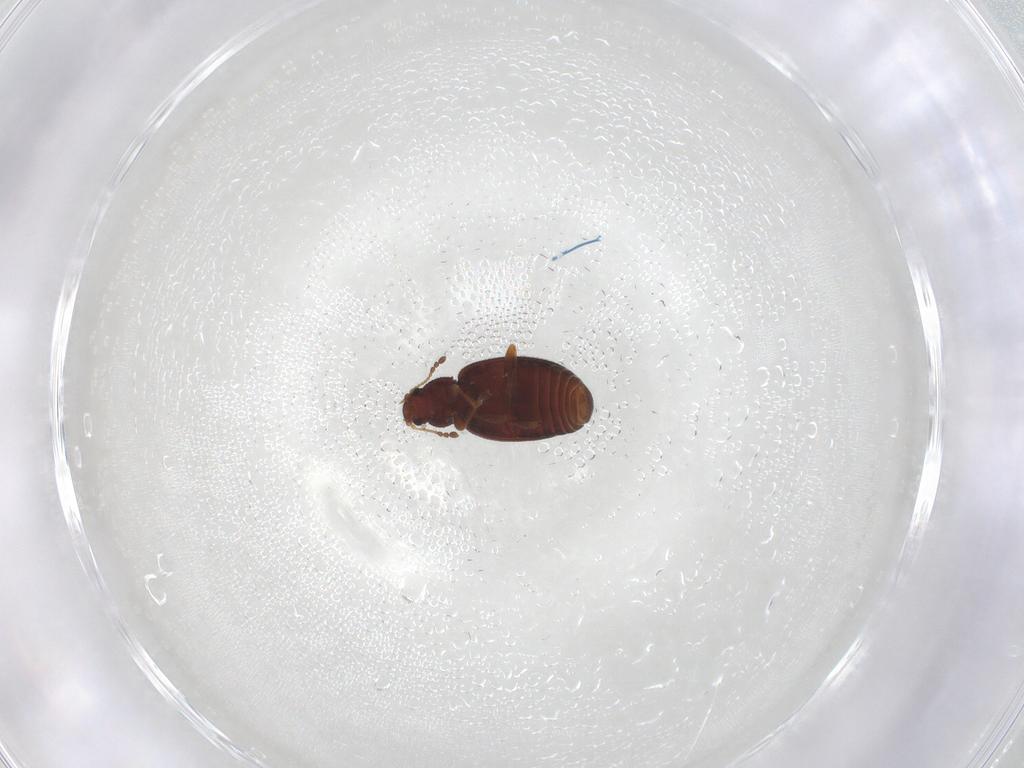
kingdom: Animalia
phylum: Arthropoda
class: Insecta
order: Coleoptera
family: Latridiidae
